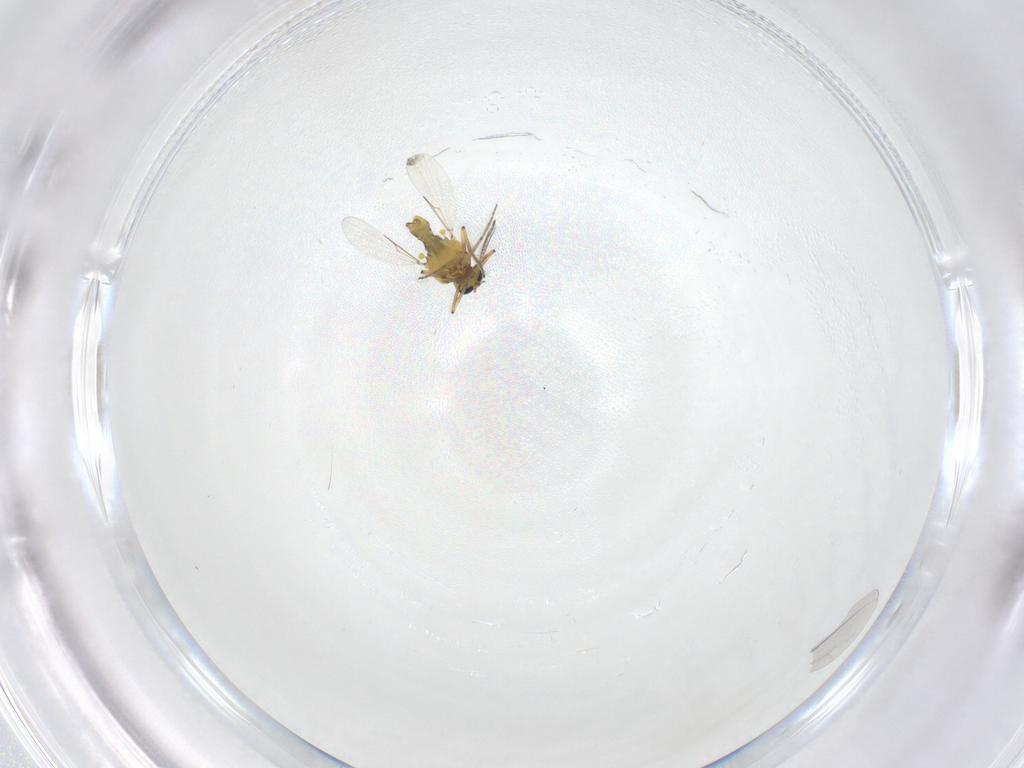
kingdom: Animalia
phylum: Arthropoda
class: Insecta
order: Diptera
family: Ceratopogonidae
